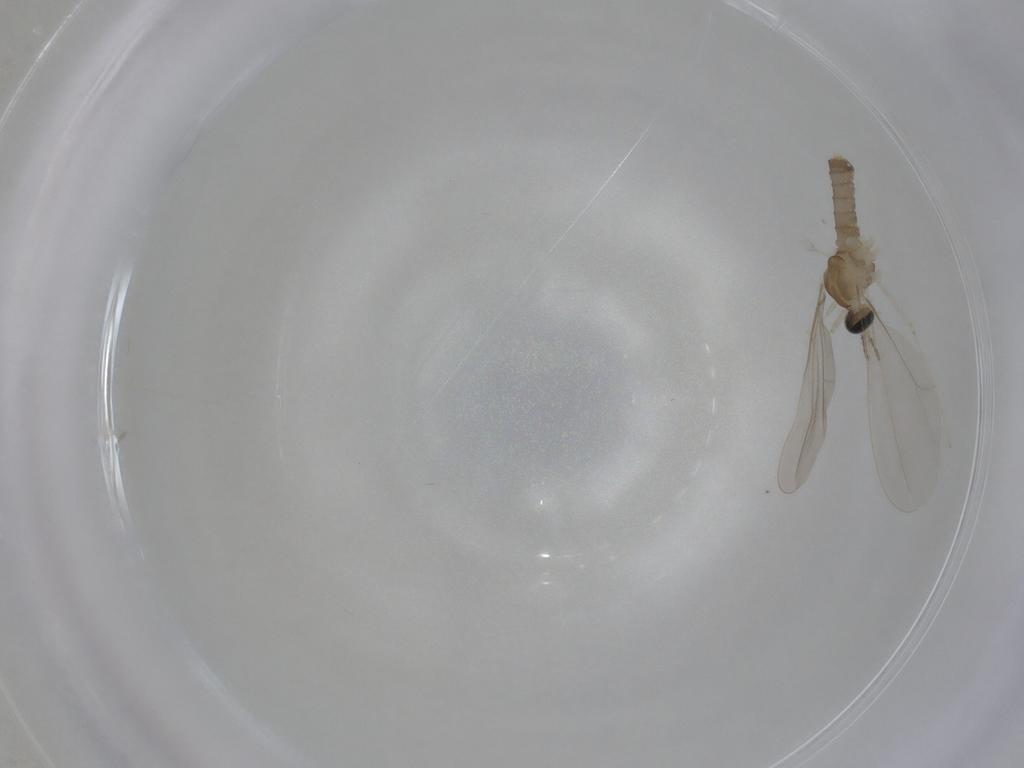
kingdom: Animalia
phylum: Arthropoda
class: Insecta
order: Diptera
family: Cecidomyiidae
